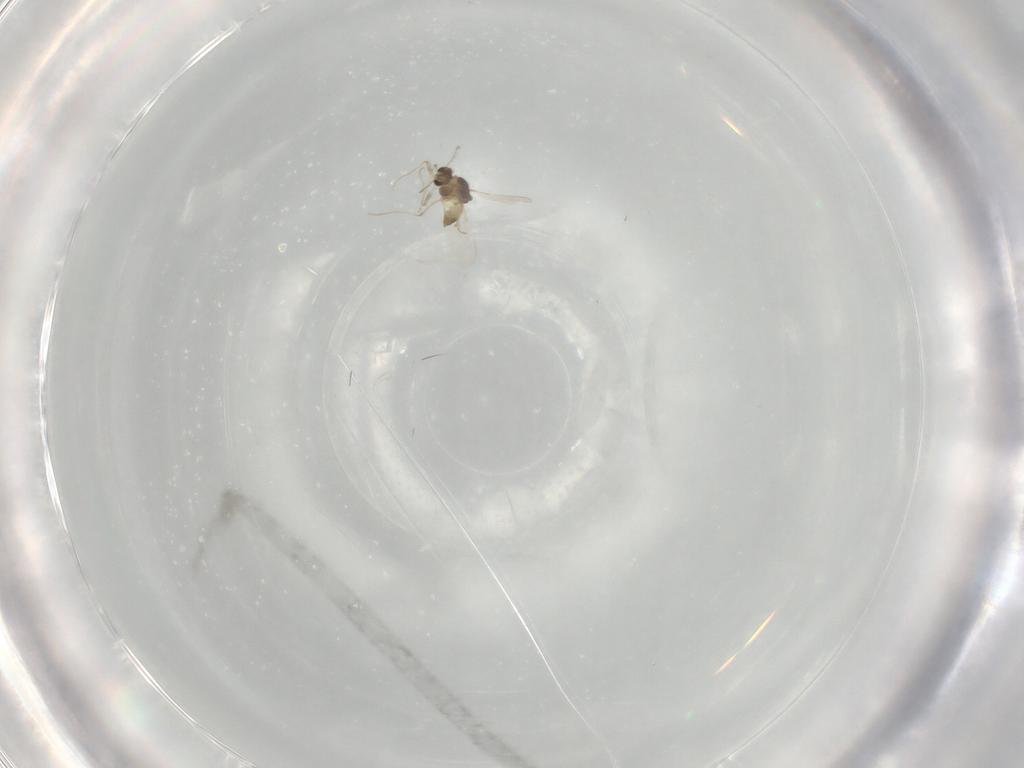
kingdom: Animalia
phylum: Arthropoda
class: Insecta
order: Diptera
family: Chironomidae
